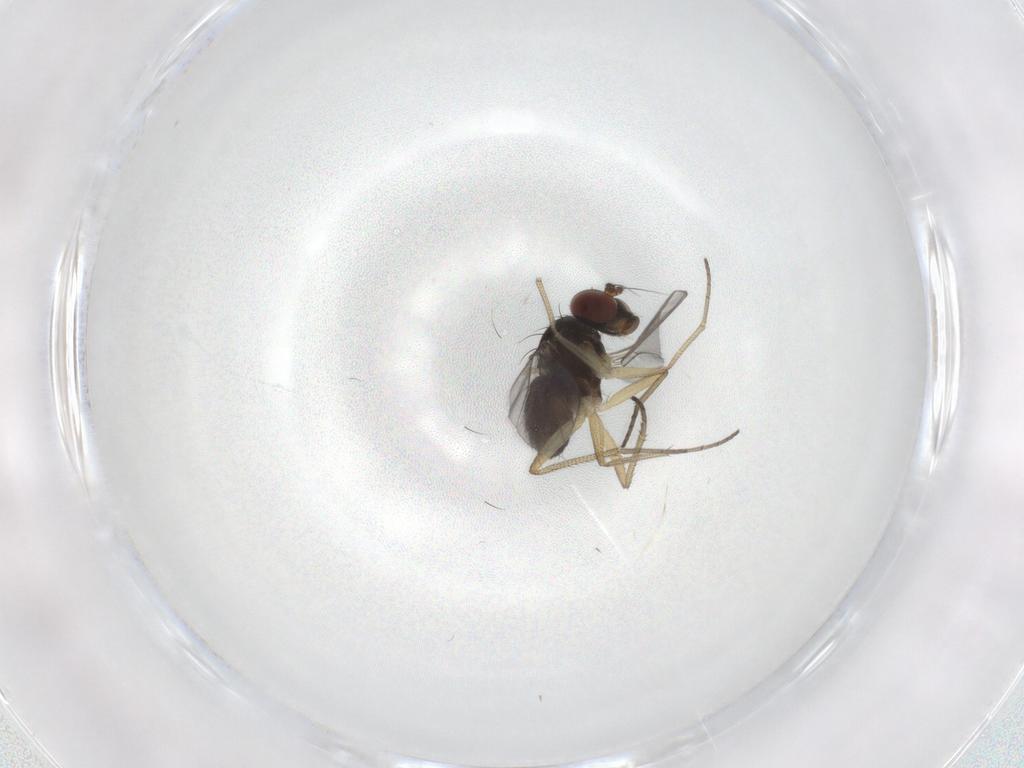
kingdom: Animalia
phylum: Arthropoda
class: Insecta
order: Diptera
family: Dolichopodidae
